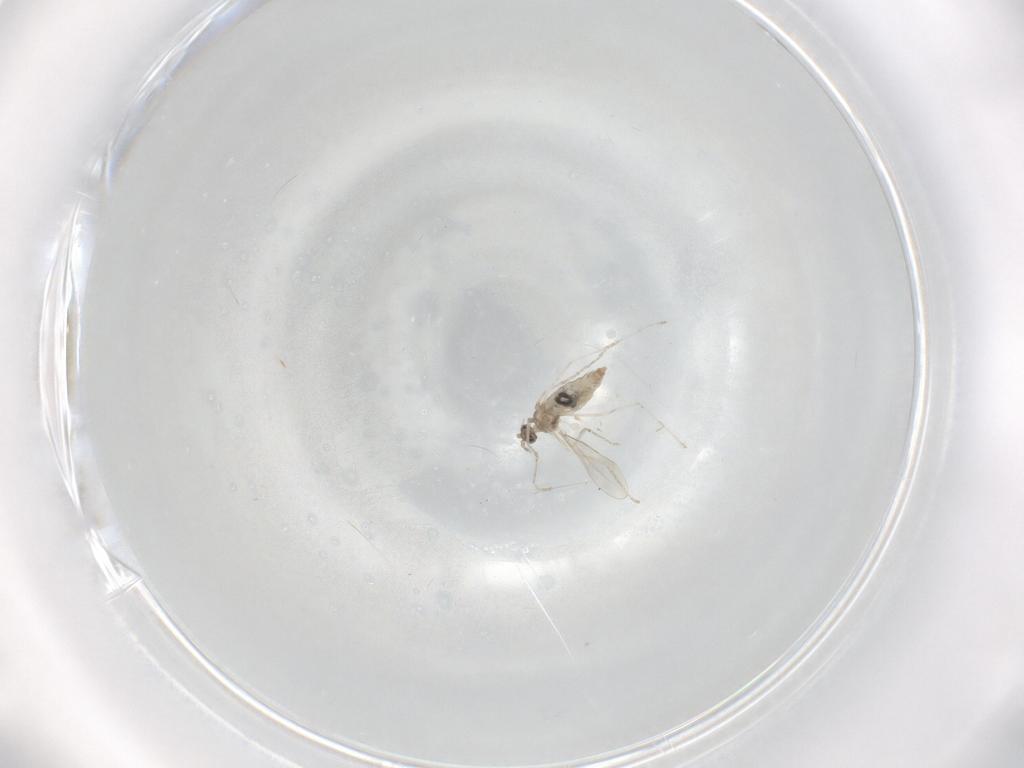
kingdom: Animalia
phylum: Arthropoda
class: Insecta
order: Diptera
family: Cecidomyiidae
